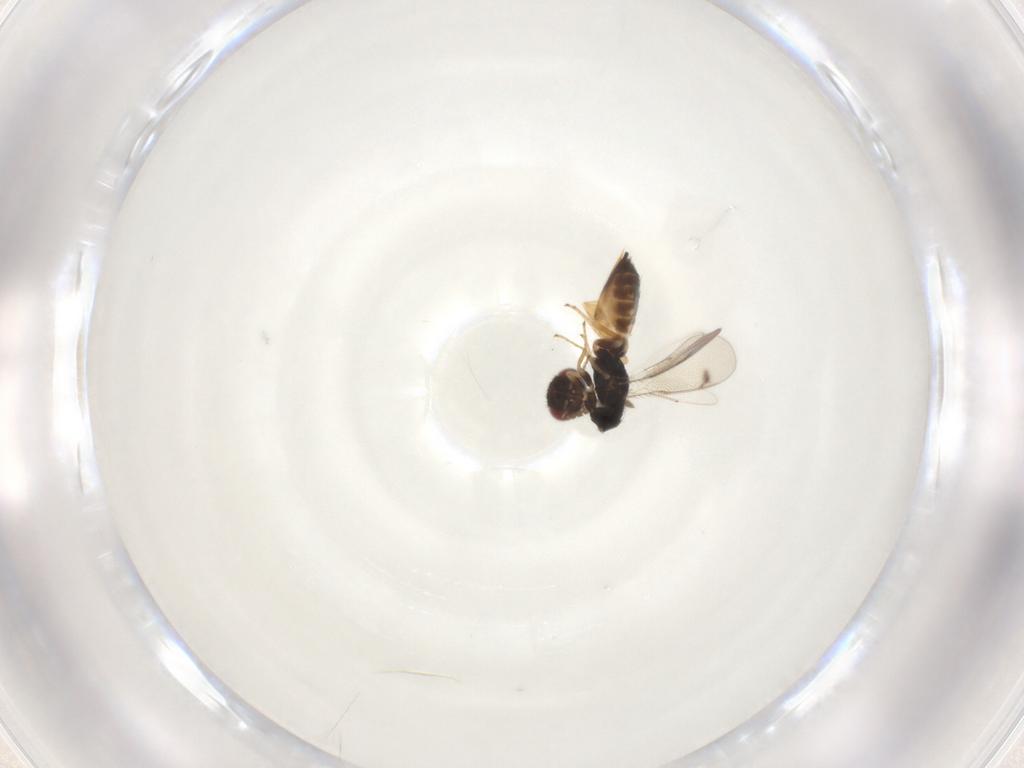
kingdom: Animalia
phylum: Arthropoda
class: Insecta
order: Hymenoptera
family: Eulophidae
